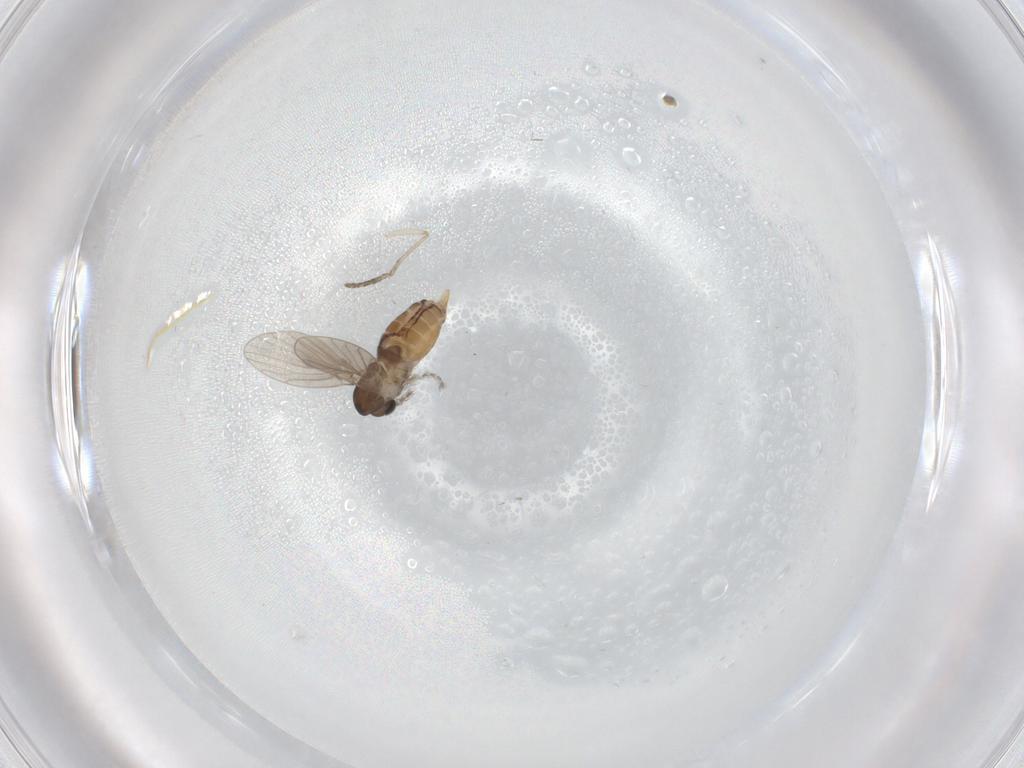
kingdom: Animalia
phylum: Arthropoda
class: Insecta
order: Diptera
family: Psychodidae
